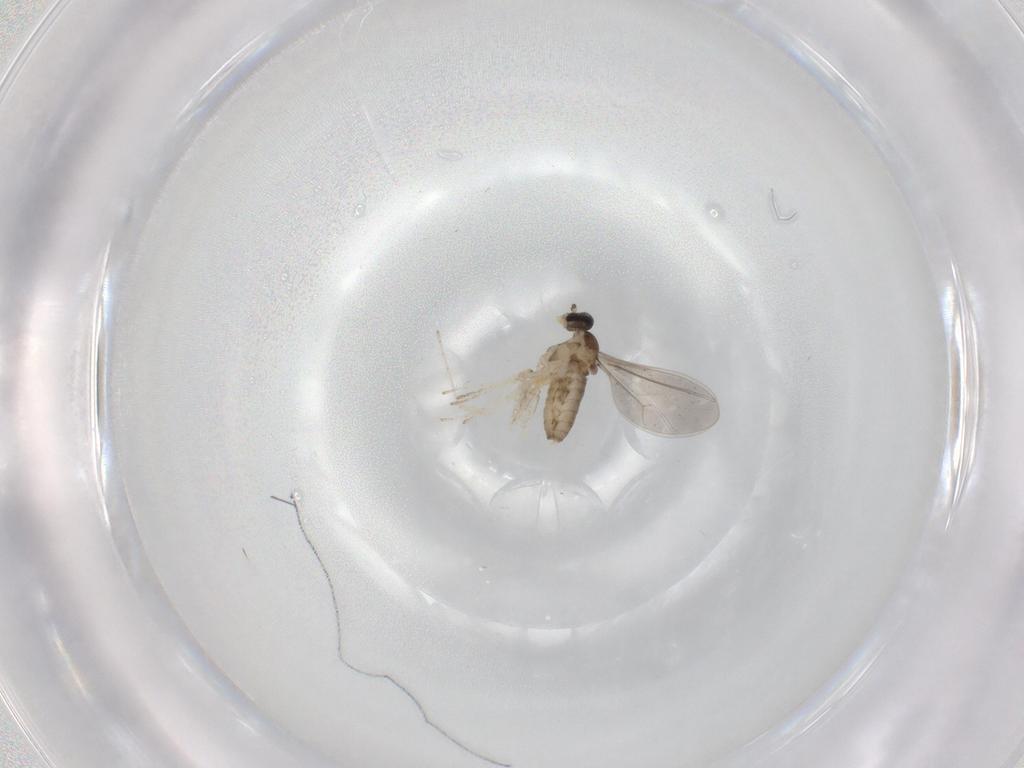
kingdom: Animalia
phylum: Arthropoda
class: Insecta
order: Diptera
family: Cecidomyiidae
